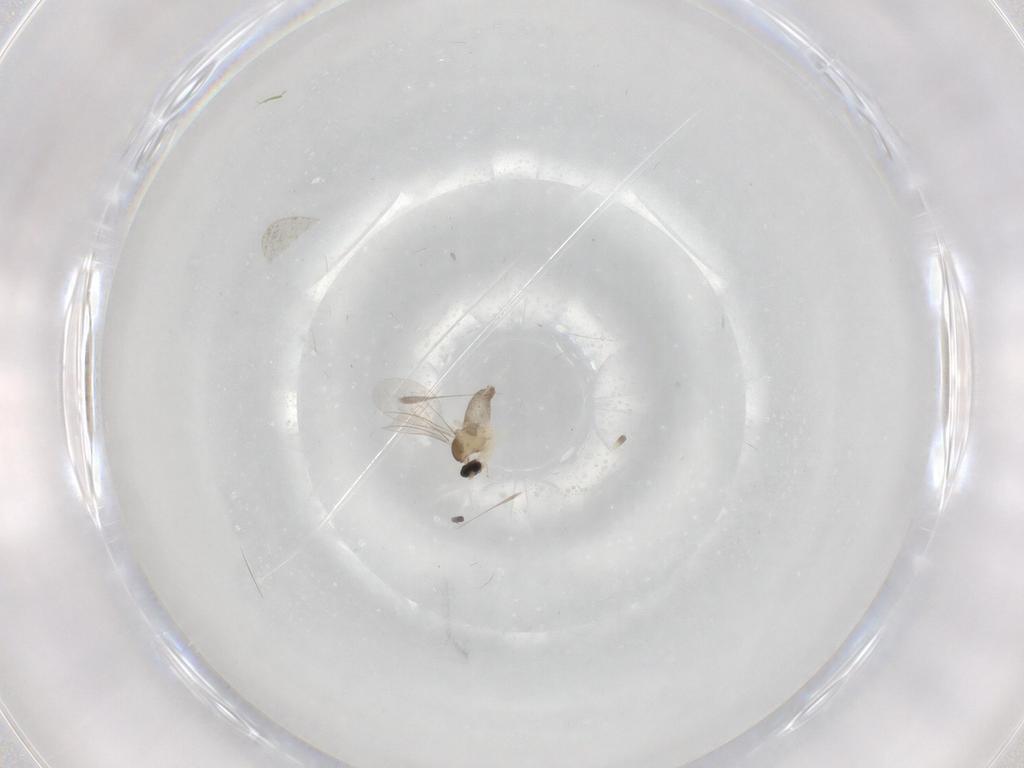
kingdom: Animalia
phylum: Arthropoda
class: Insecta
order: Diptera
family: Cecidomyiidae
